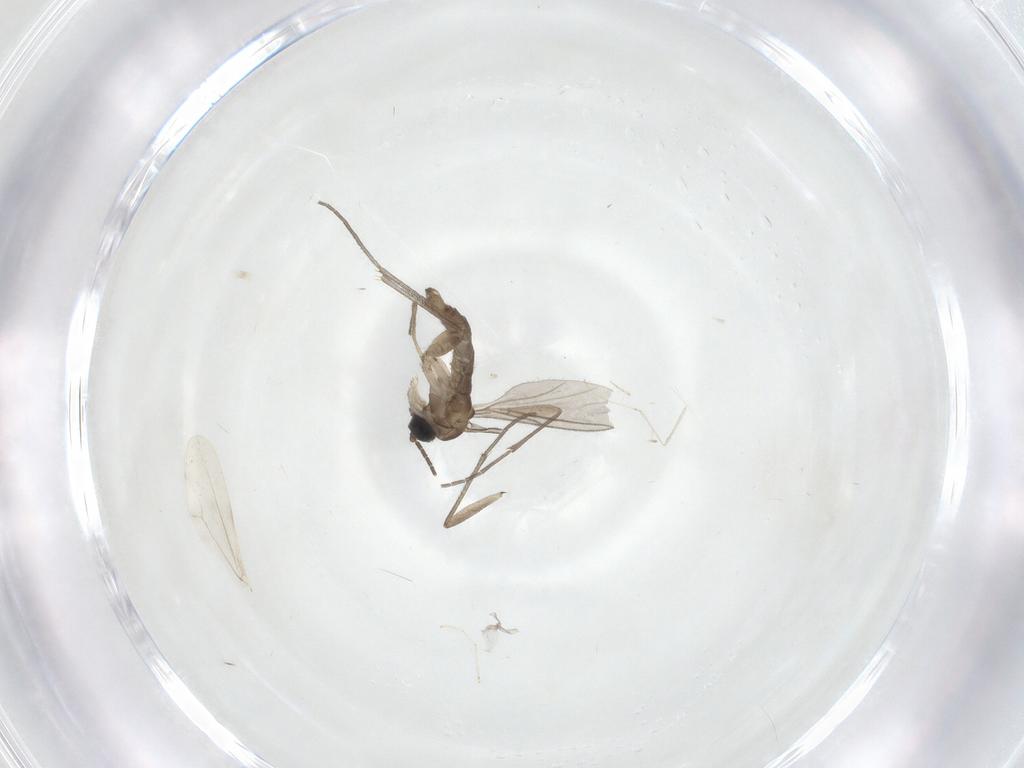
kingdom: Animalia
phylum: Arthropoda
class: Insecta
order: Diptera
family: Sciaridae
